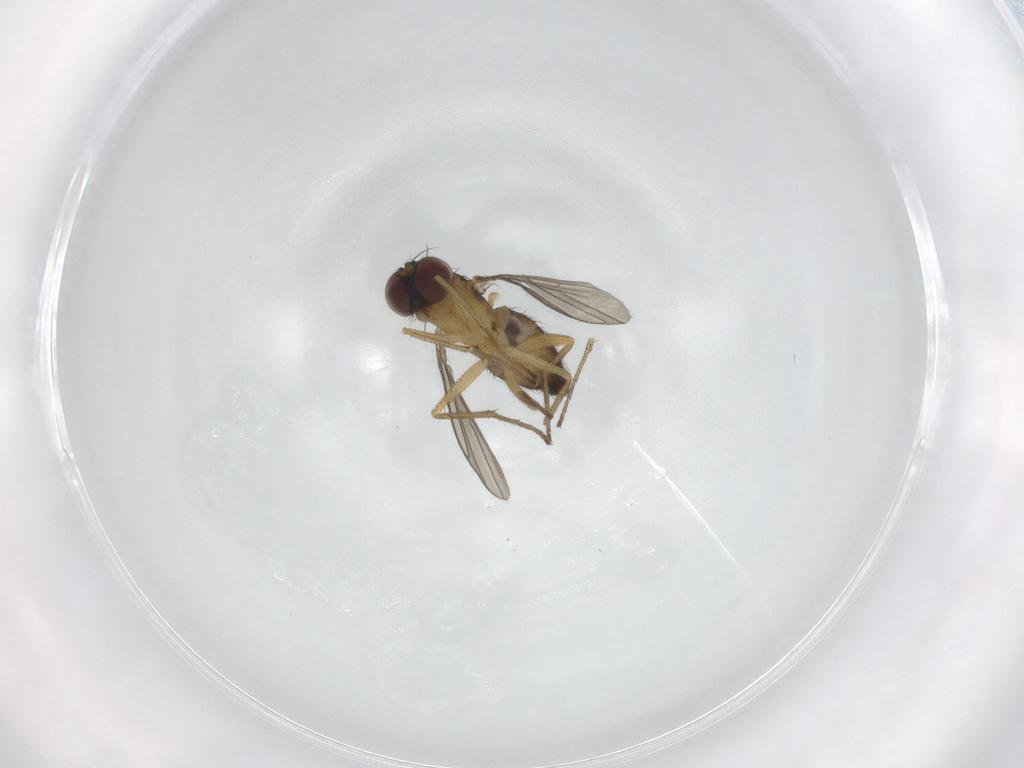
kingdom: Animalia
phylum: Arthropoda
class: Insecta
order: Diptera
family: Dolichopodidae
